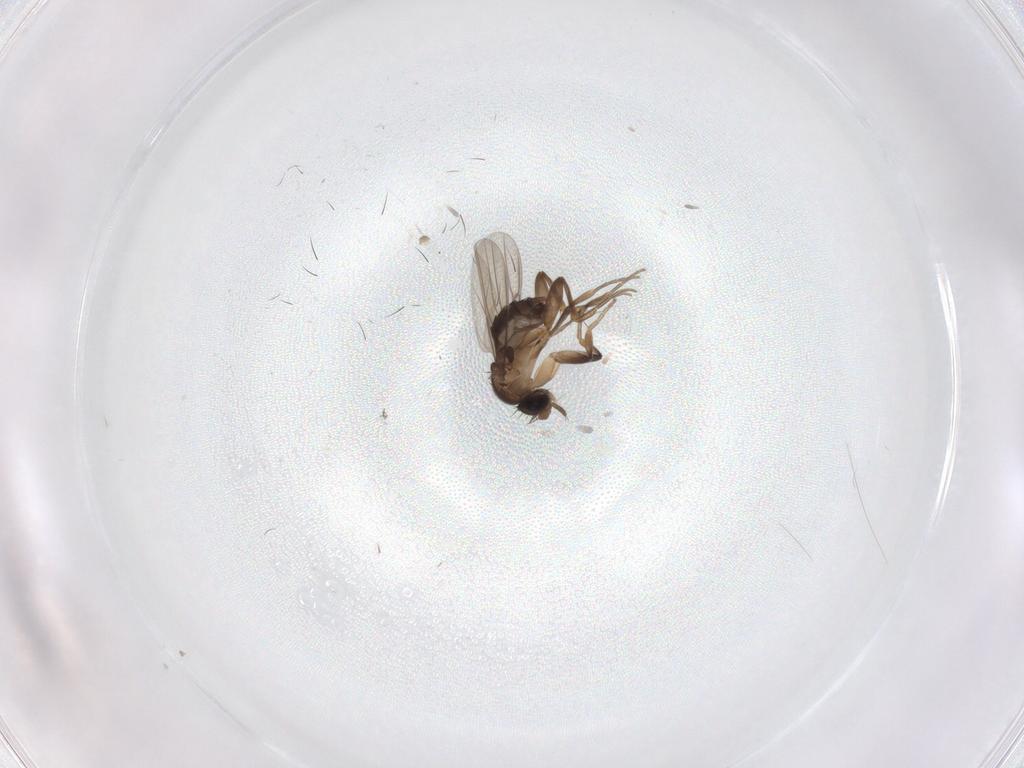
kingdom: Animalia
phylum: Arthropoda
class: Insecta
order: Diptera
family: Cecidomyiidae
